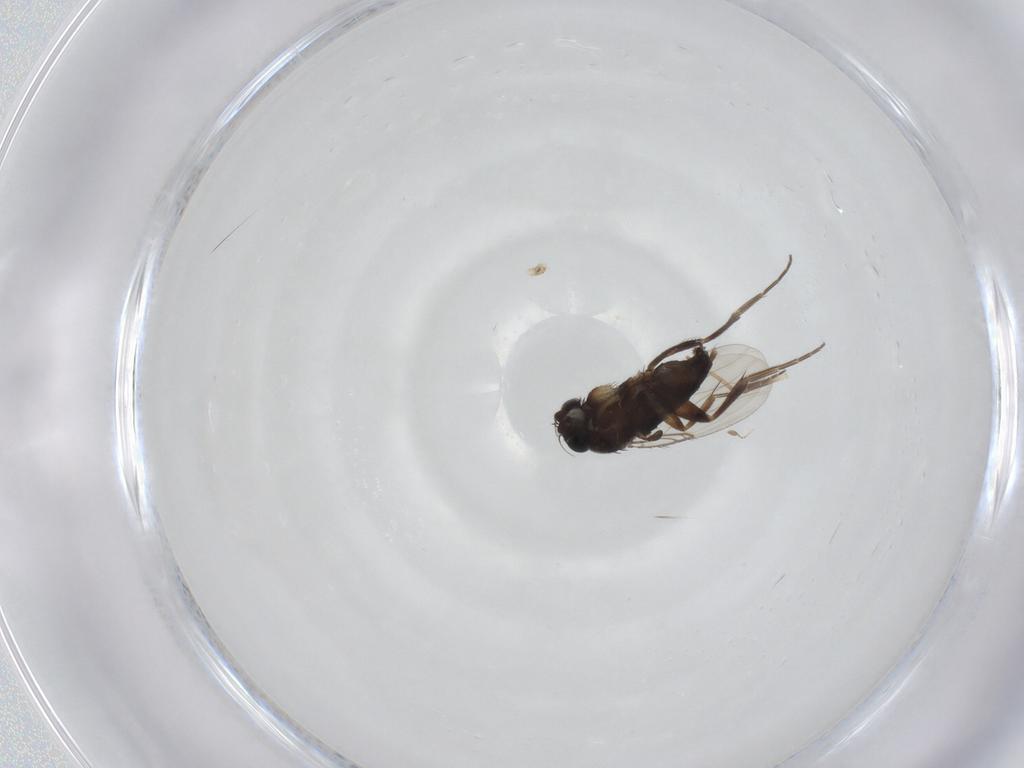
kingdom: Animalia
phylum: Arthropoda
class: Insecta
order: Diptera
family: Phoridae
